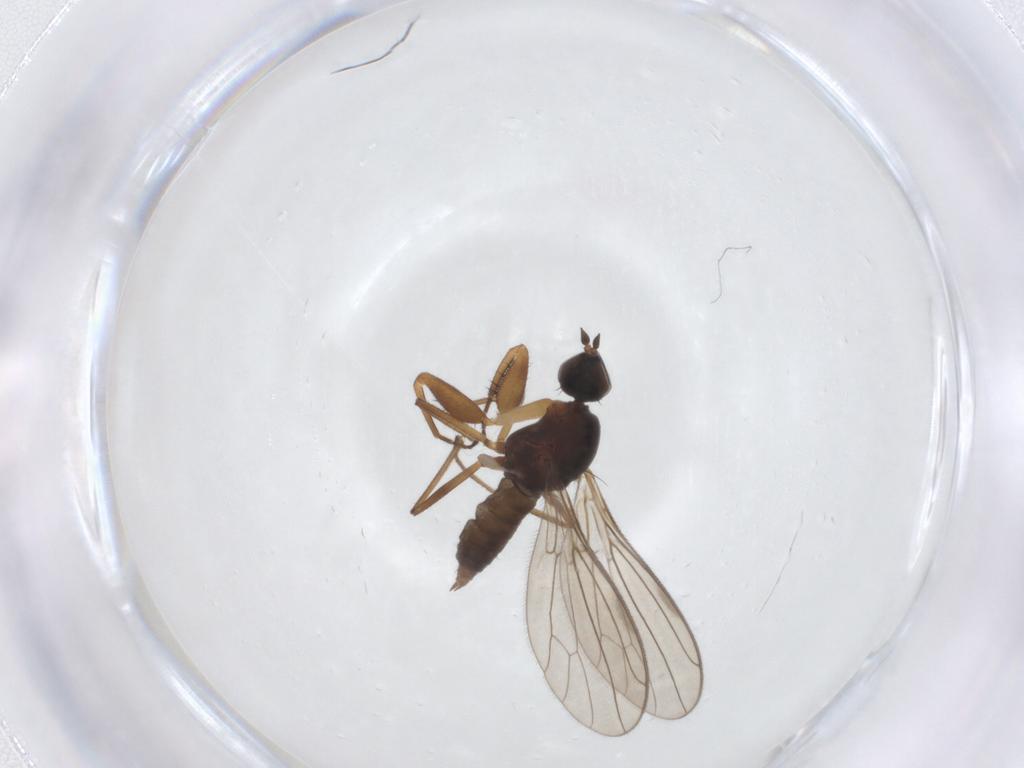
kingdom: Animalia
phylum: Arthropoda
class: Insecta
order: Diptera
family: Empididae
